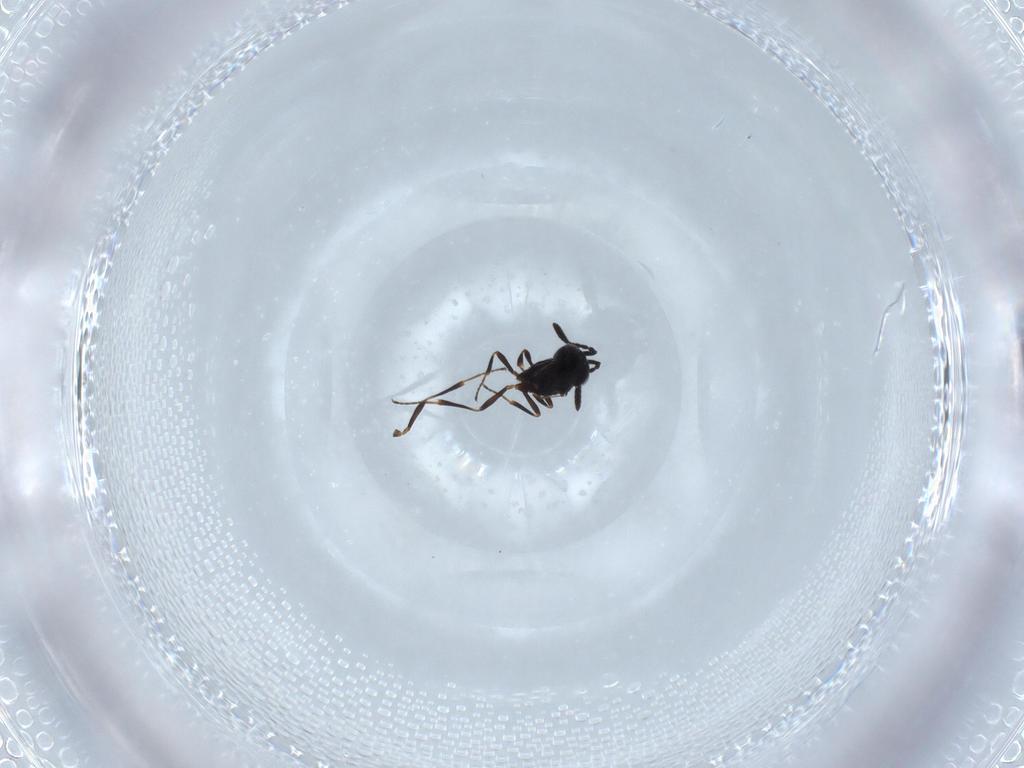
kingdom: Animalia
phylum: Arthropoda
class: Insecta
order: Hymenoptera
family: Scelionidae
